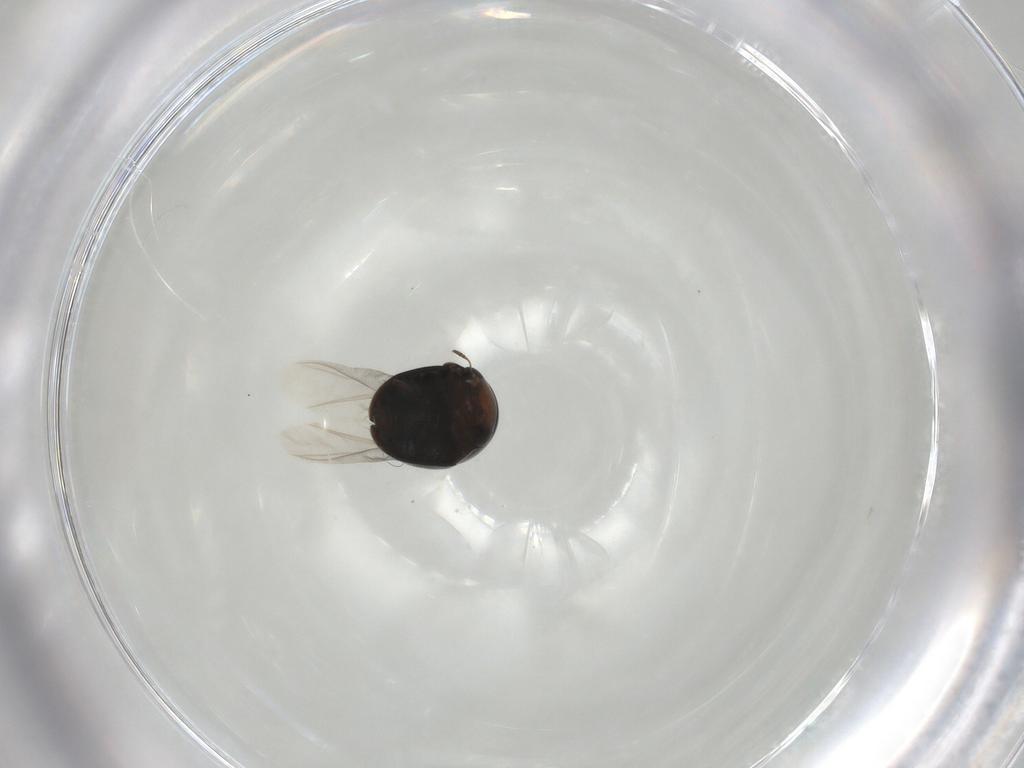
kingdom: Animalia
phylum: Arthropoda
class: Insecta
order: Coleoptera
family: Cybocephalidae
